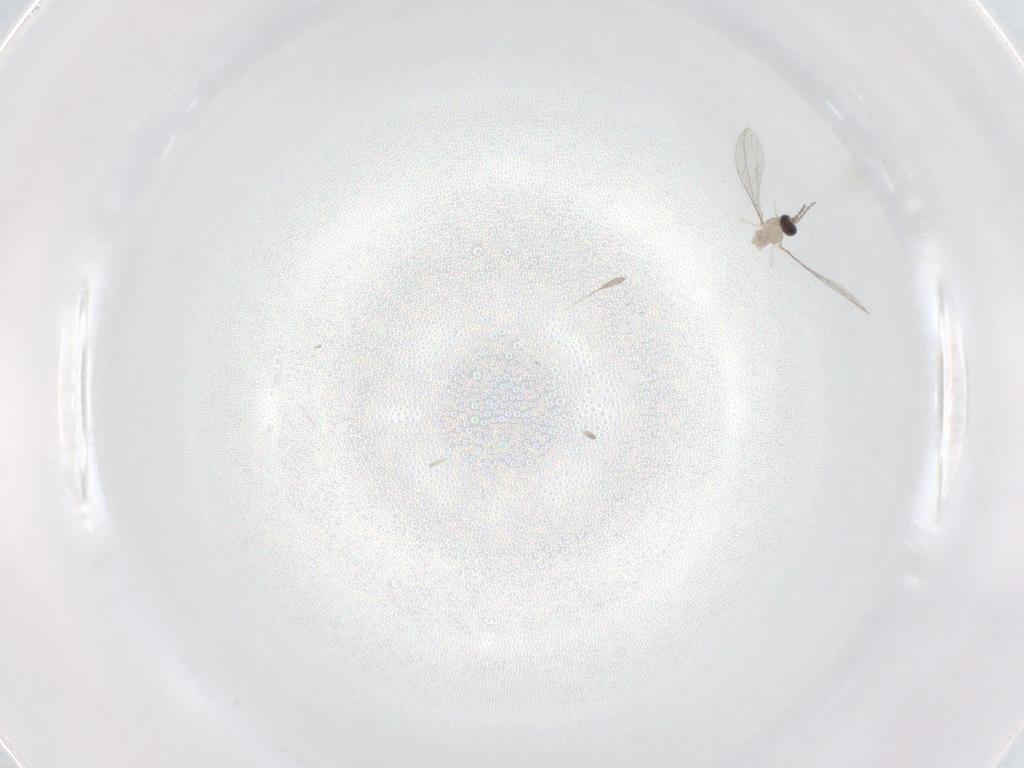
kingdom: Animalia
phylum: Arthropoda
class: Insecta
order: Diptera
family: Cecidomyiidae
